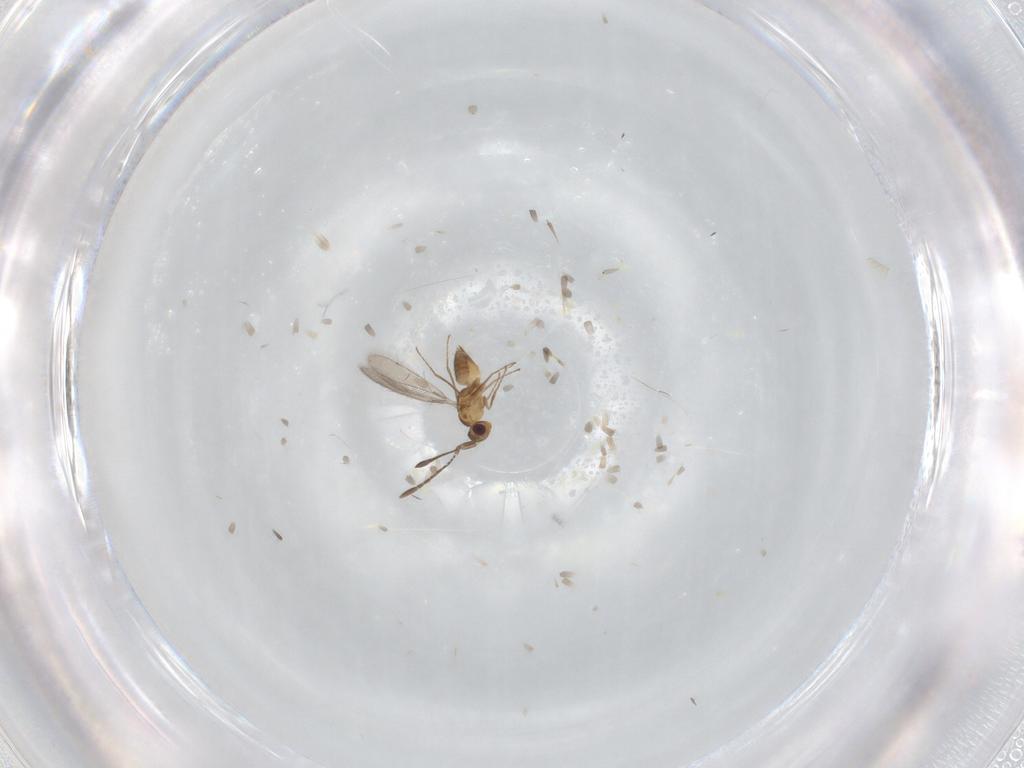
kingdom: Animalia
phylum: Arthropoda
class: Insecta
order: Hymenoptera
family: Mymaridae
